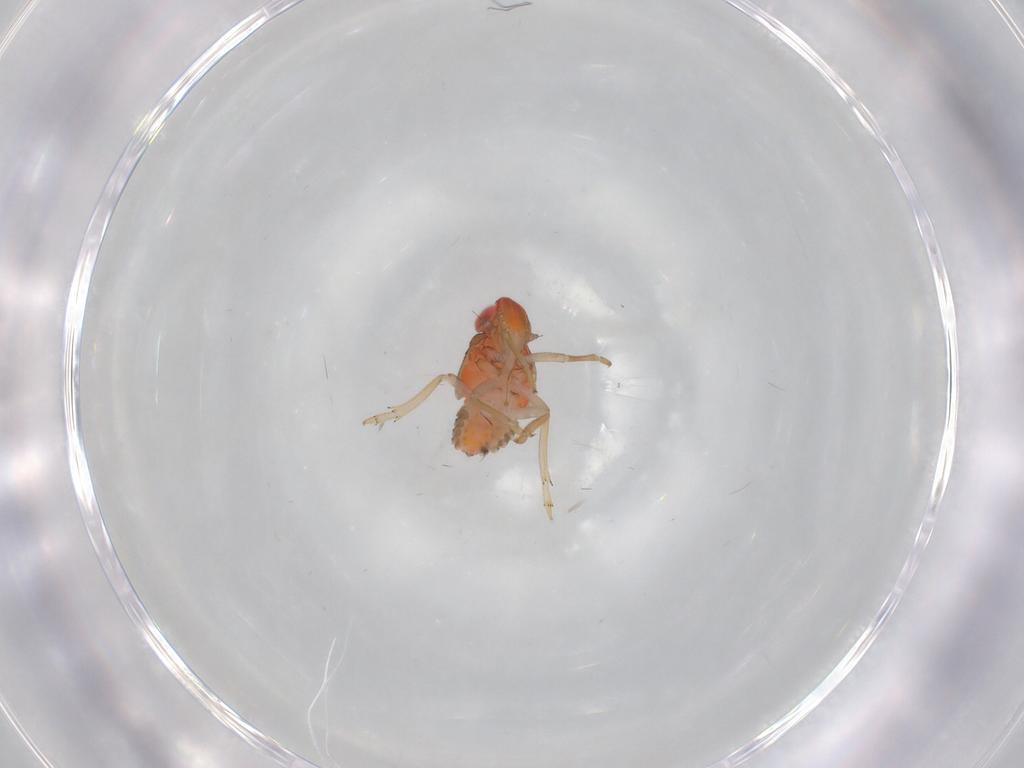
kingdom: Animalia
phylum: Arthropoda
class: Insecta
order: Hemiptera
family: Fulgoroidea_incertae_sedis
